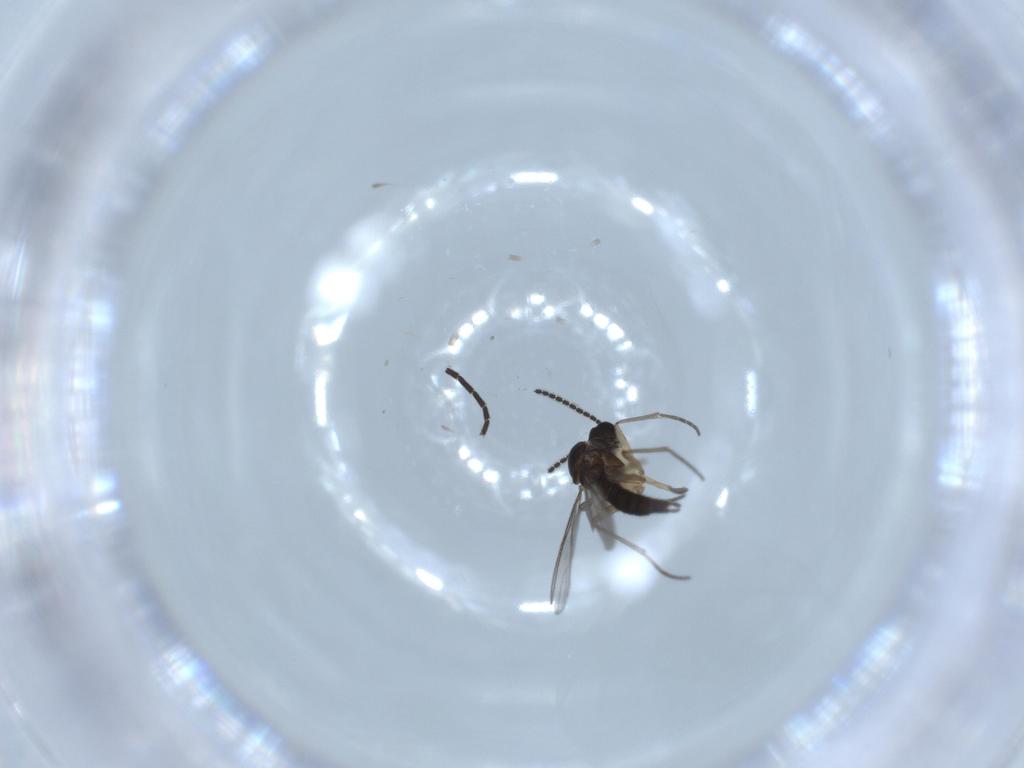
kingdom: Animalia
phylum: Arthropoda
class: Insecta
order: Diptera
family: Sciaridae
